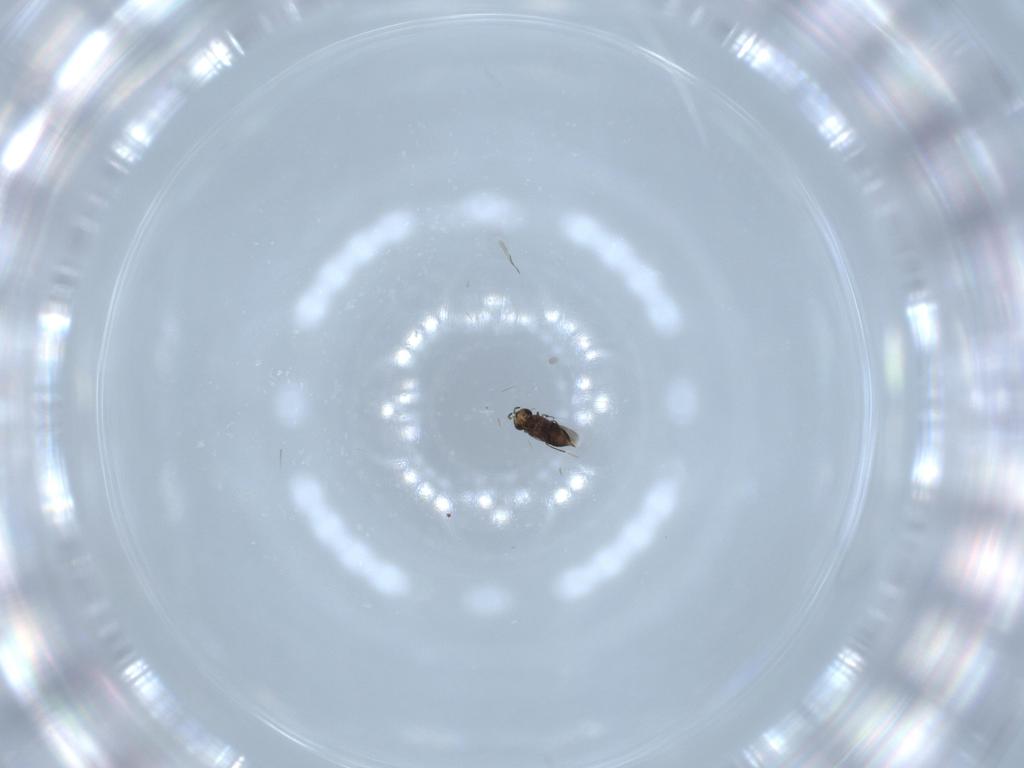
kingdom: Animalia
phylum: Arthropoda
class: Insecta
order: Hymenoptera
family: Signiphoridae
